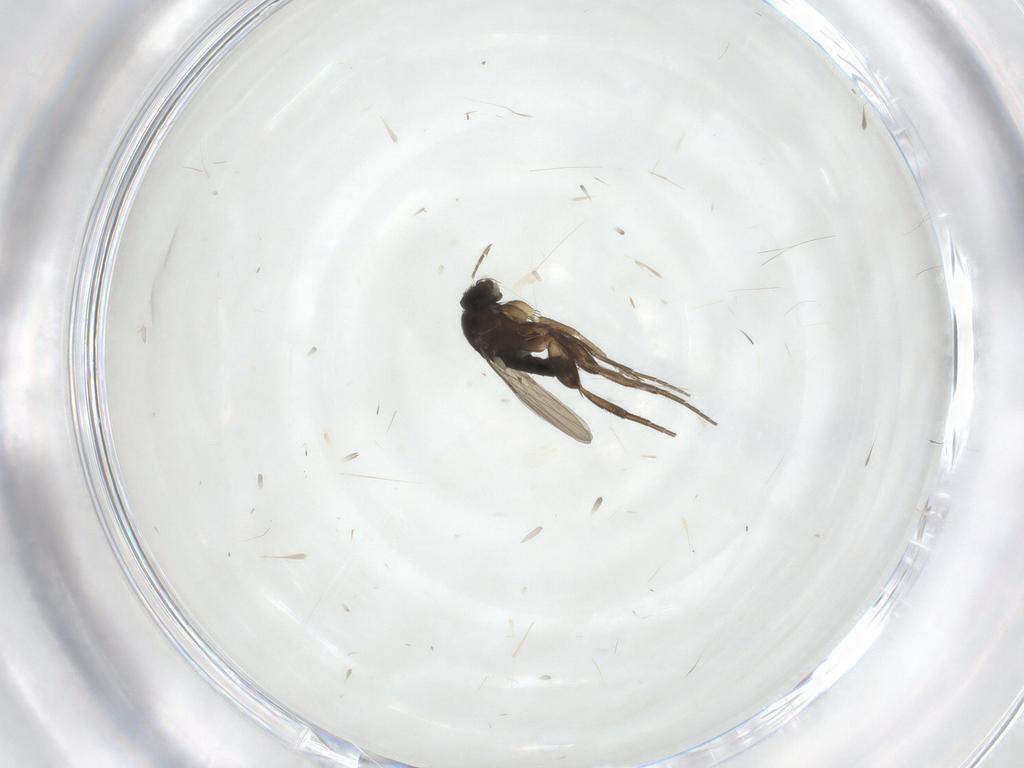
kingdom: Animalia
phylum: Arthropoda
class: Insecta
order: Diptera
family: Phoridae
